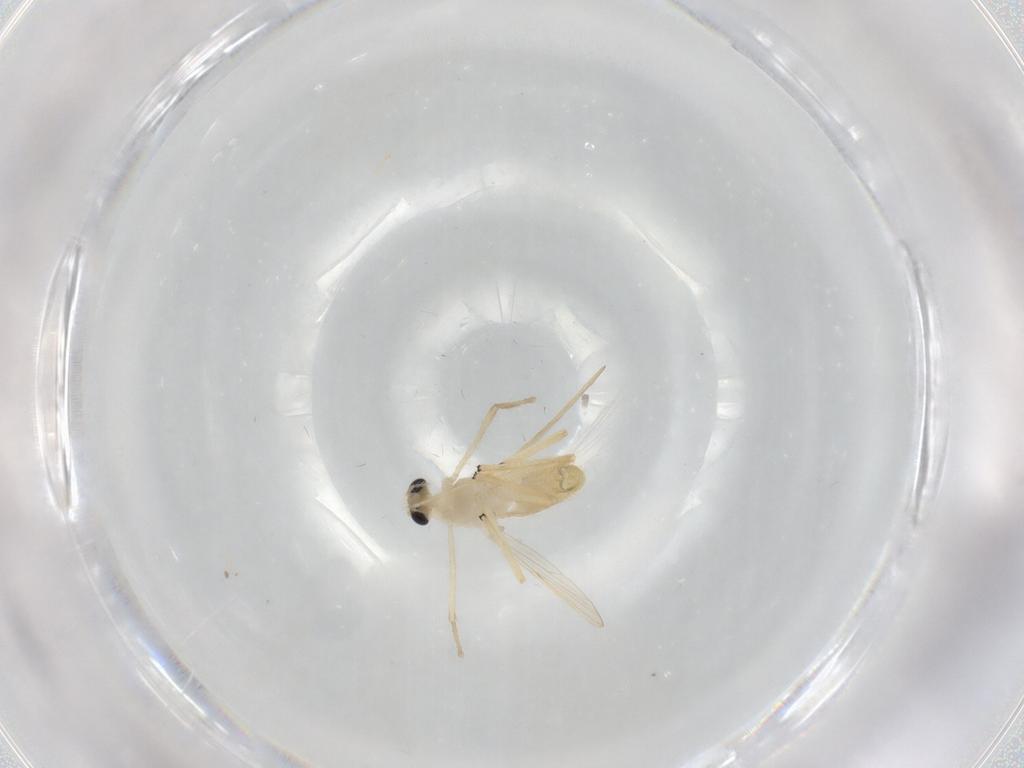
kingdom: Animalia
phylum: Arthropoda
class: Insecta
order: Diptera
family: Chironomidae
